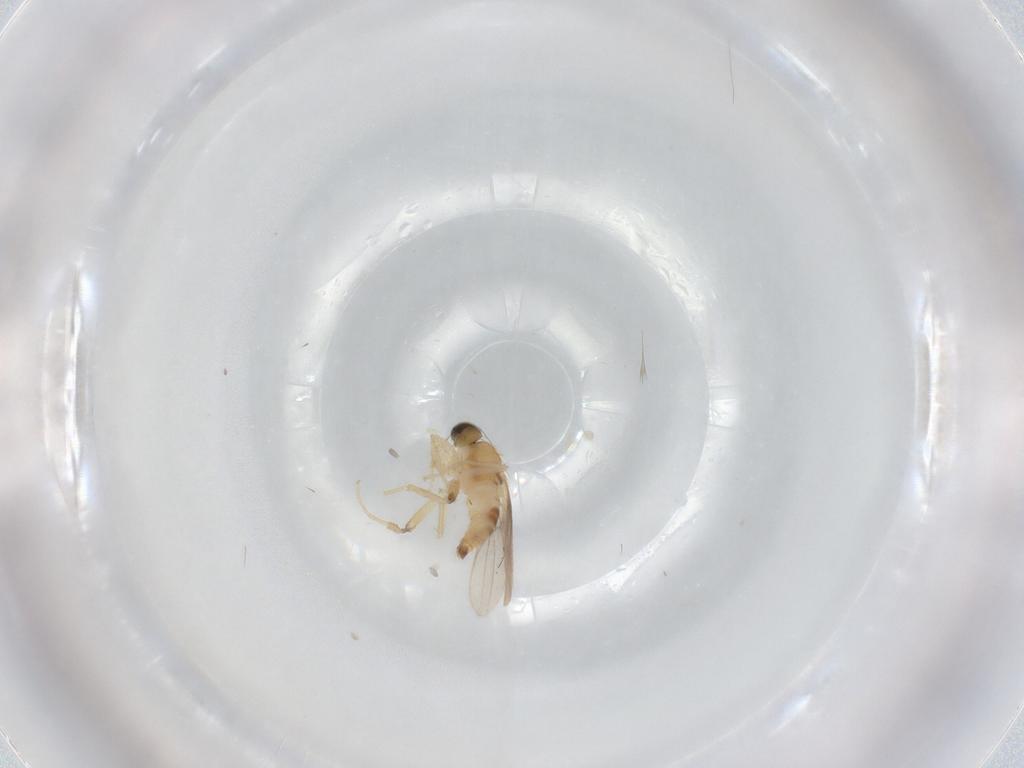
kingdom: Animalia
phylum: Arthropoda
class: Insecta
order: Diptera
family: Hybotidae
